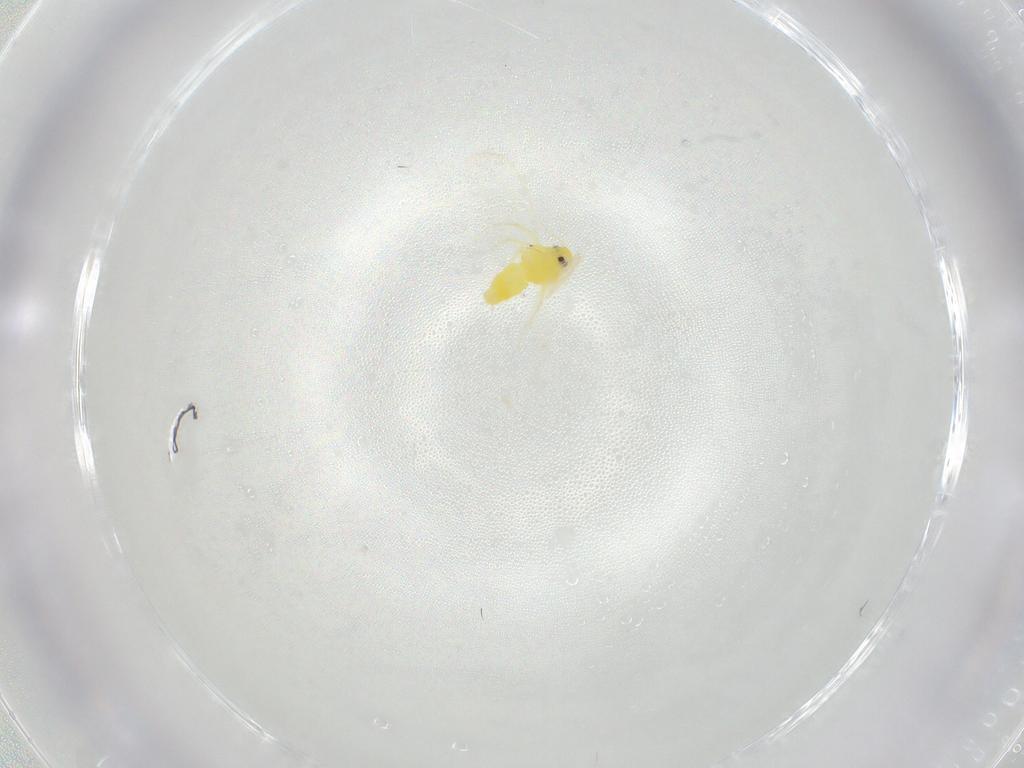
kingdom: Animalia
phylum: Arthropoda
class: Insecta
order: Hemiptera
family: Aleyrodidae
